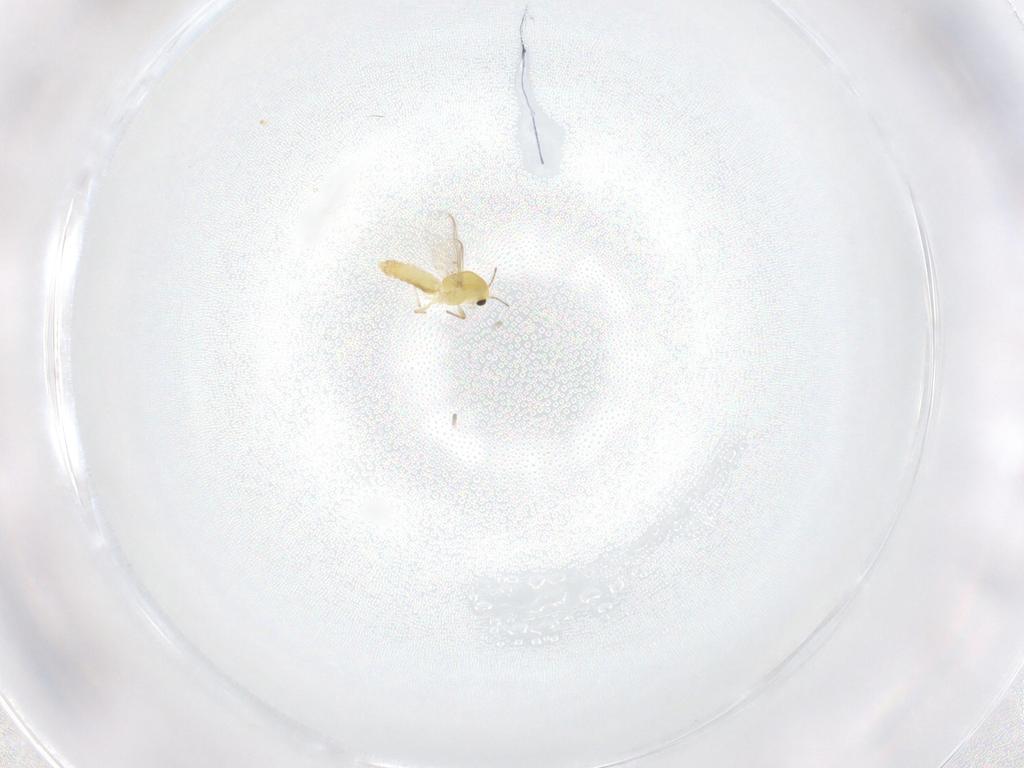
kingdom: Animalia
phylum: Arthropoda
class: Insecta
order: Diptera
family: Chironomidae
